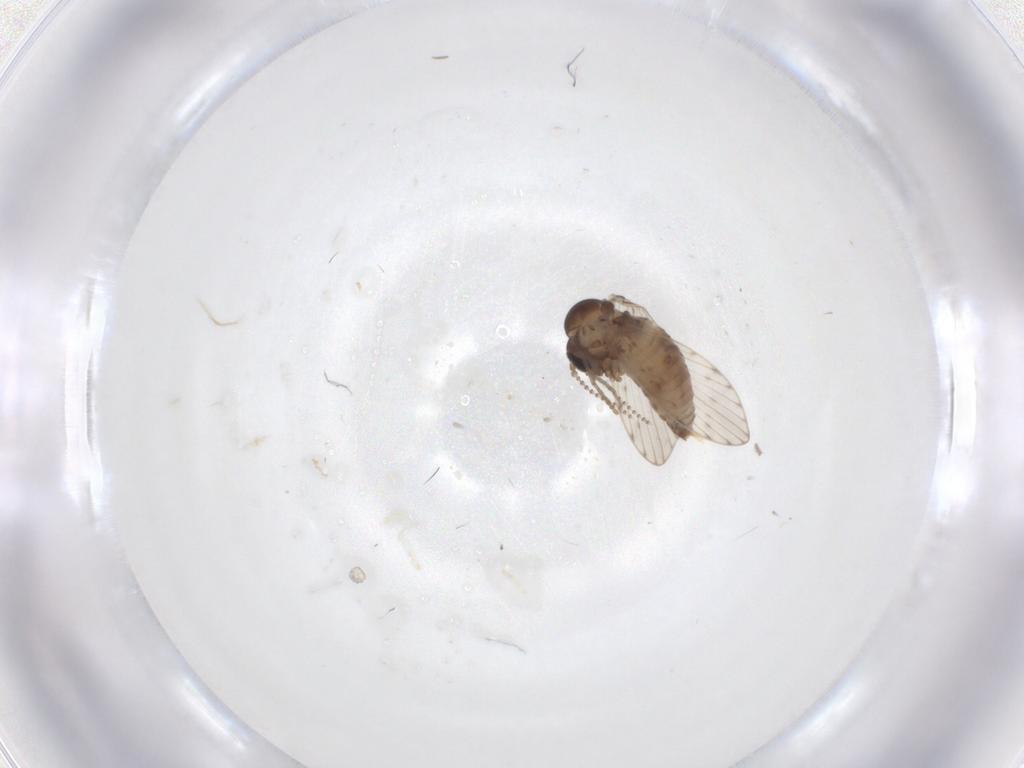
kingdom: Animalia
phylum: Arthropoda
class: Insecta
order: Diptera
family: Psychodidae
